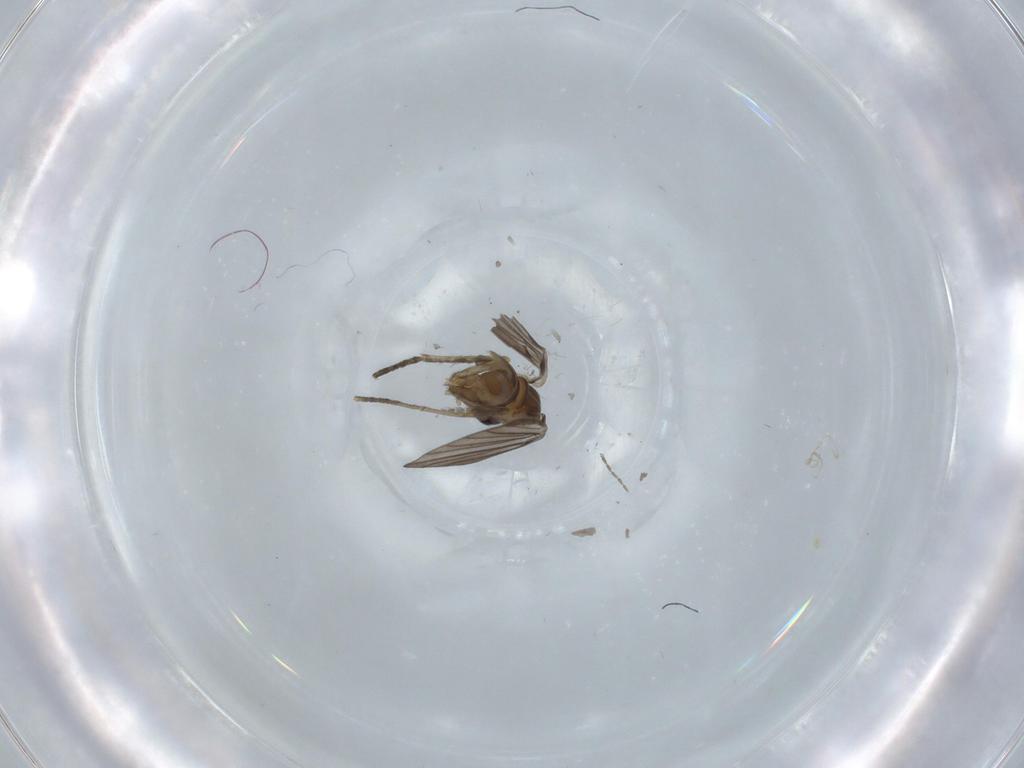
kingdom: Animalia
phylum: Arthropoda
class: Insecta
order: Diptera
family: Psychodidae
